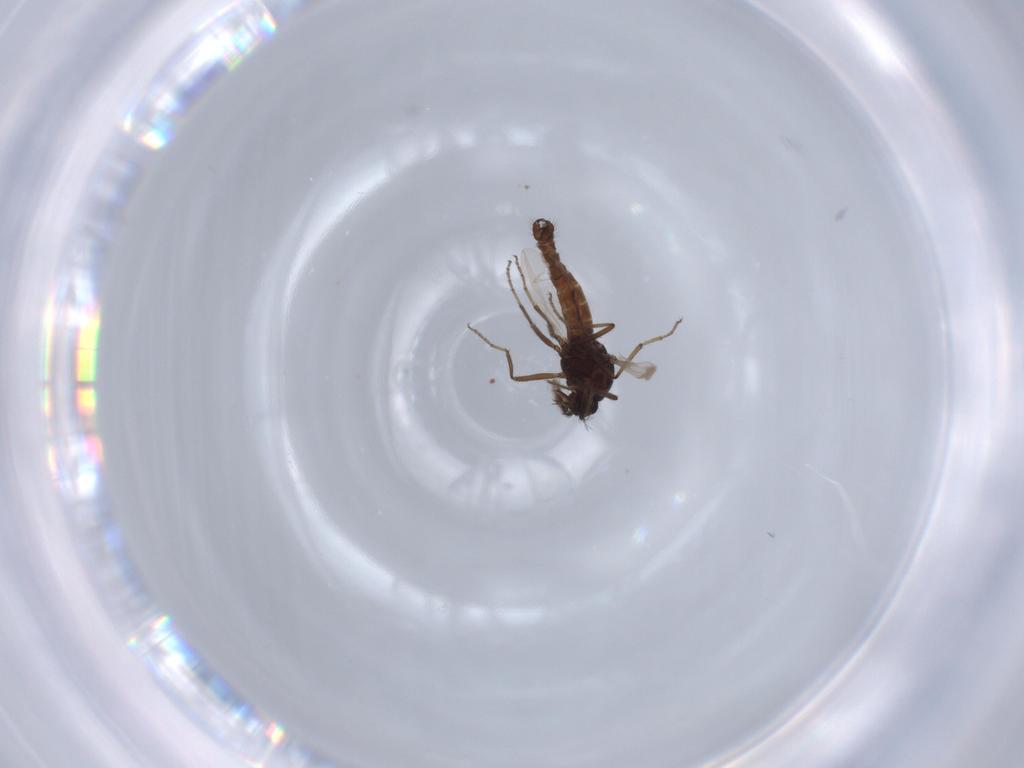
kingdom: Animalia
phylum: Arthropoda
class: Insecta
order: Diptera
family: Ceratopogonidae
